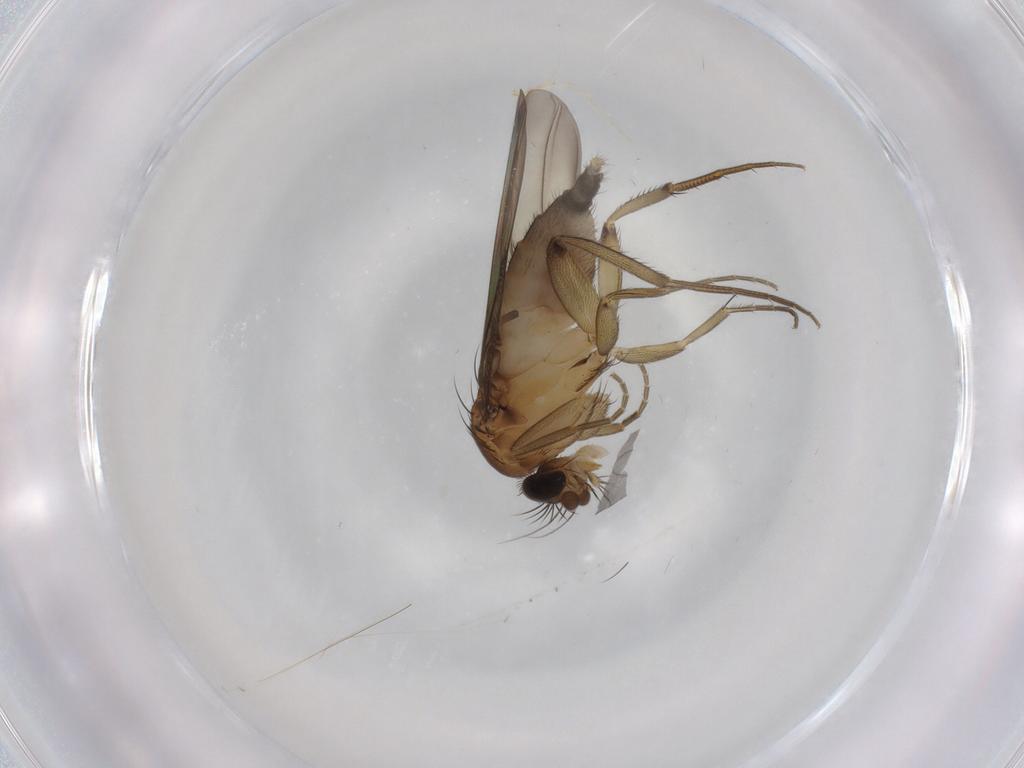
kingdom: Animalia
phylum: Arthropoda
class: Insecta
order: Diptera
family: Phoridae
